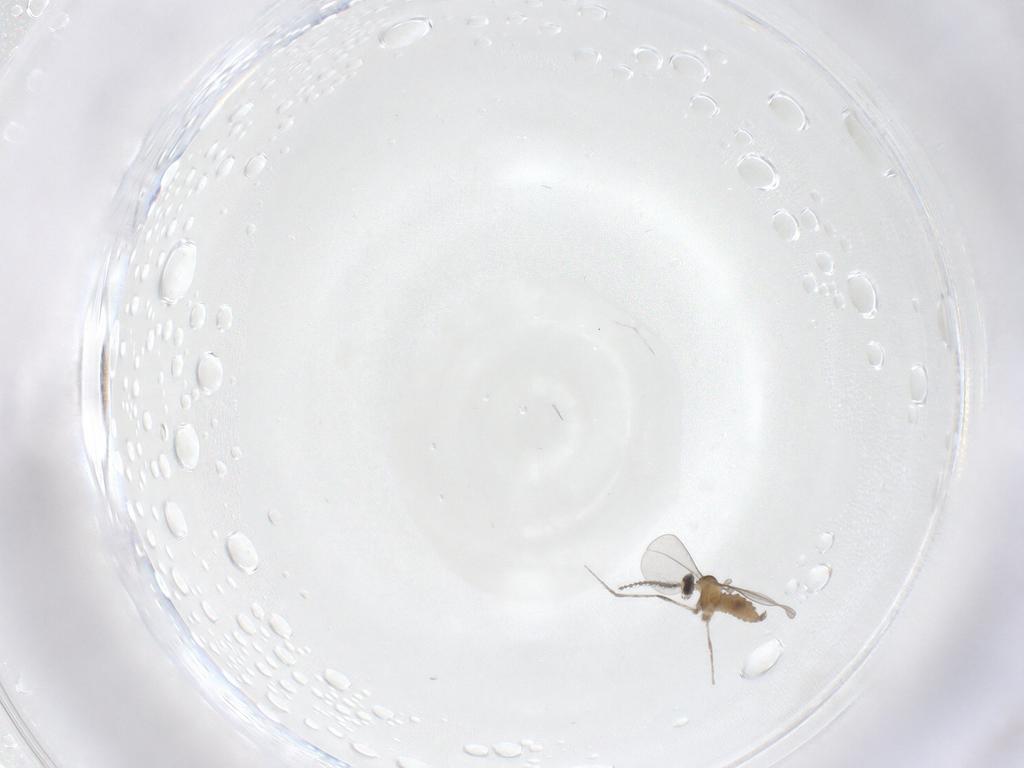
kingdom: Animalia
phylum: Arthropoda
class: Insecta
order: Diptera
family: Cecidomyiidae
